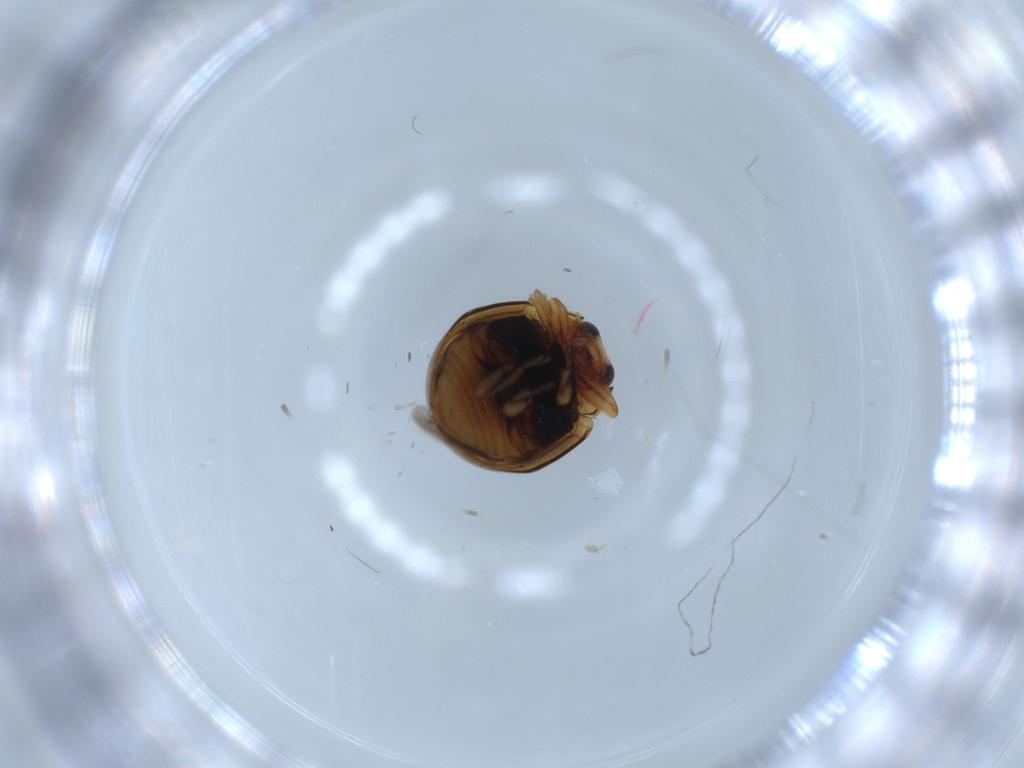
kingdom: Animalia
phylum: Arthropoda
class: Insecta
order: Coleoptera
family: Coccinellidae
